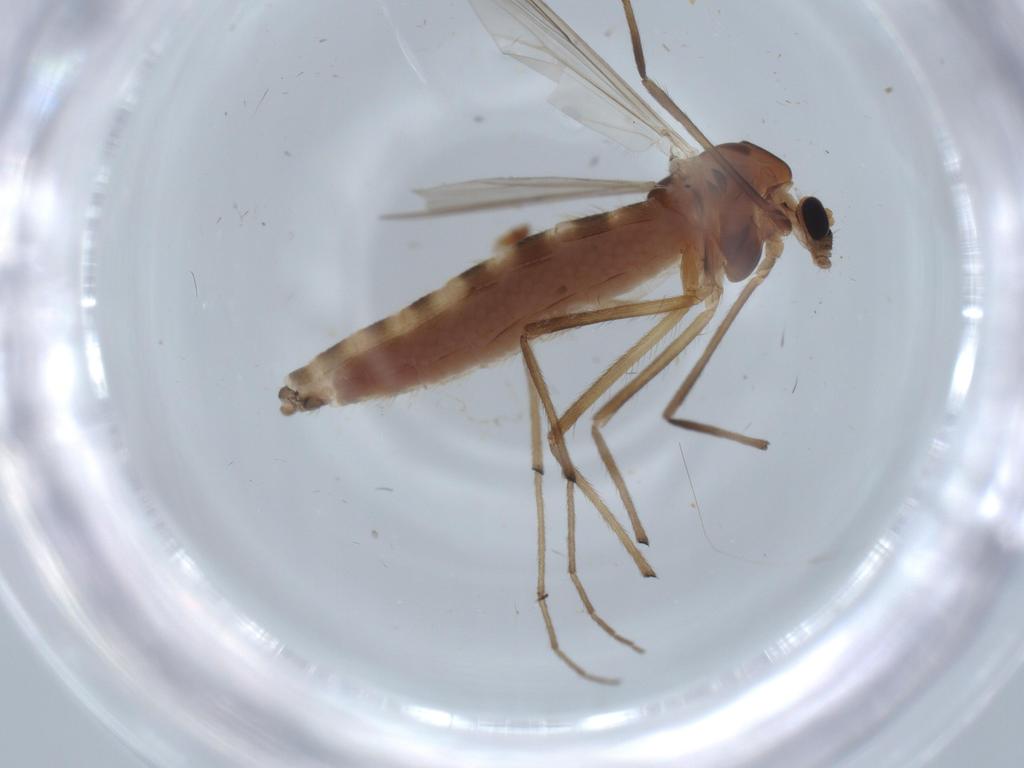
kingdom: Animalia
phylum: Arthropoda
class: Insecta
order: Diptera
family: Chironomidae
